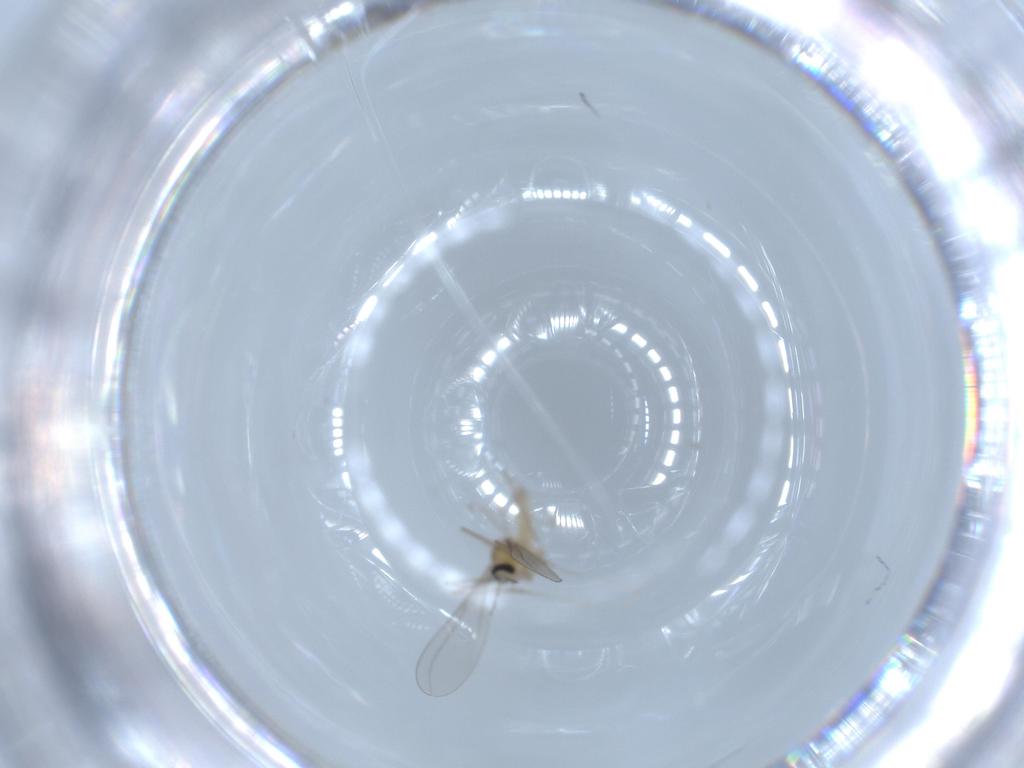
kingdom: Animalia
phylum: Arthropoda
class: Insecta
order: Diptera
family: Cecidomyiidae
